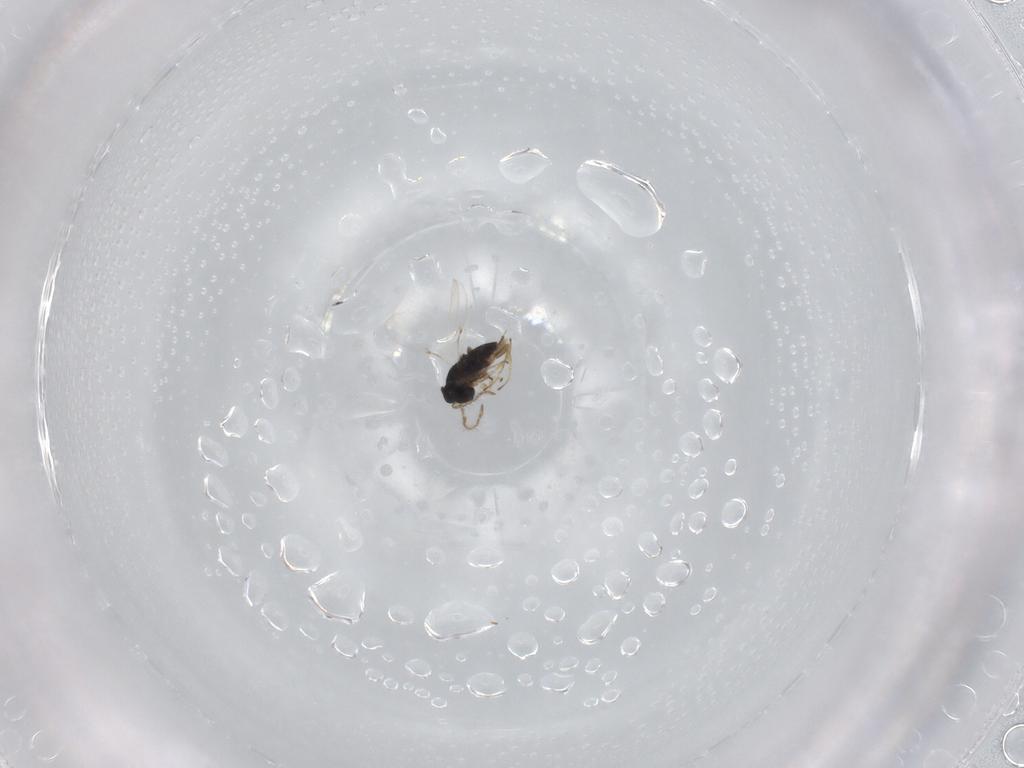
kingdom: Animalia
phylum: Arthropoda
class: Insecta
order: Hymenoptera
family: Encyrtidae
